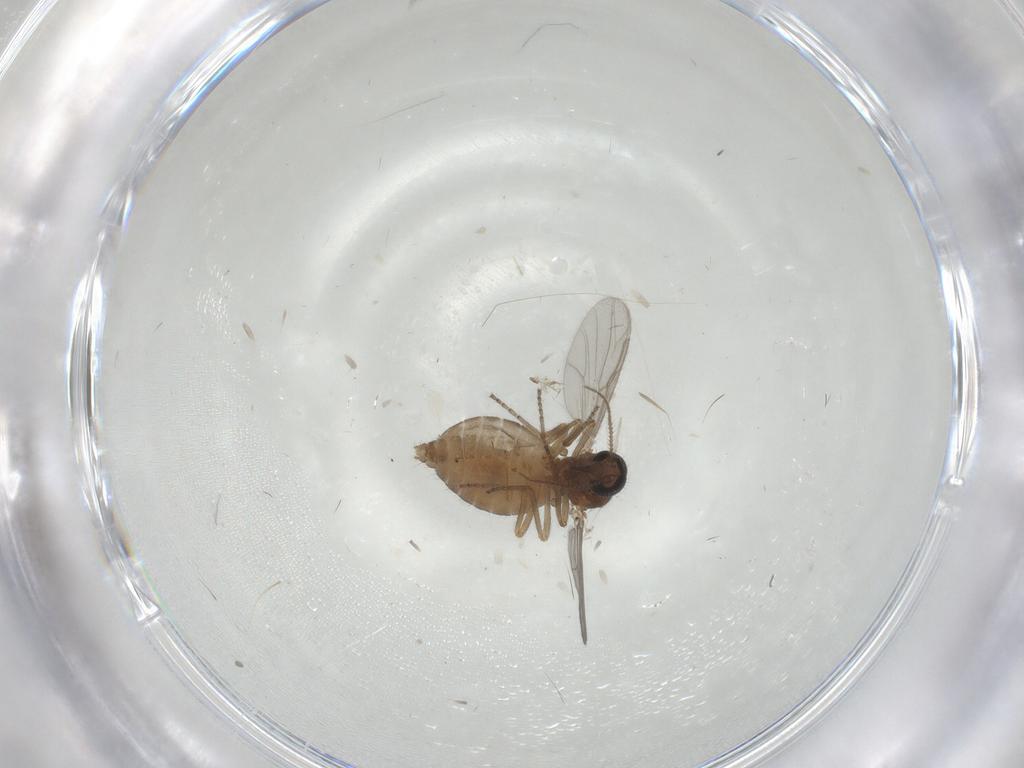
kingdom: Animalia
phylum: Arthropoda
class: Insecta
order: Diptera
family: Ceratopogonidae
